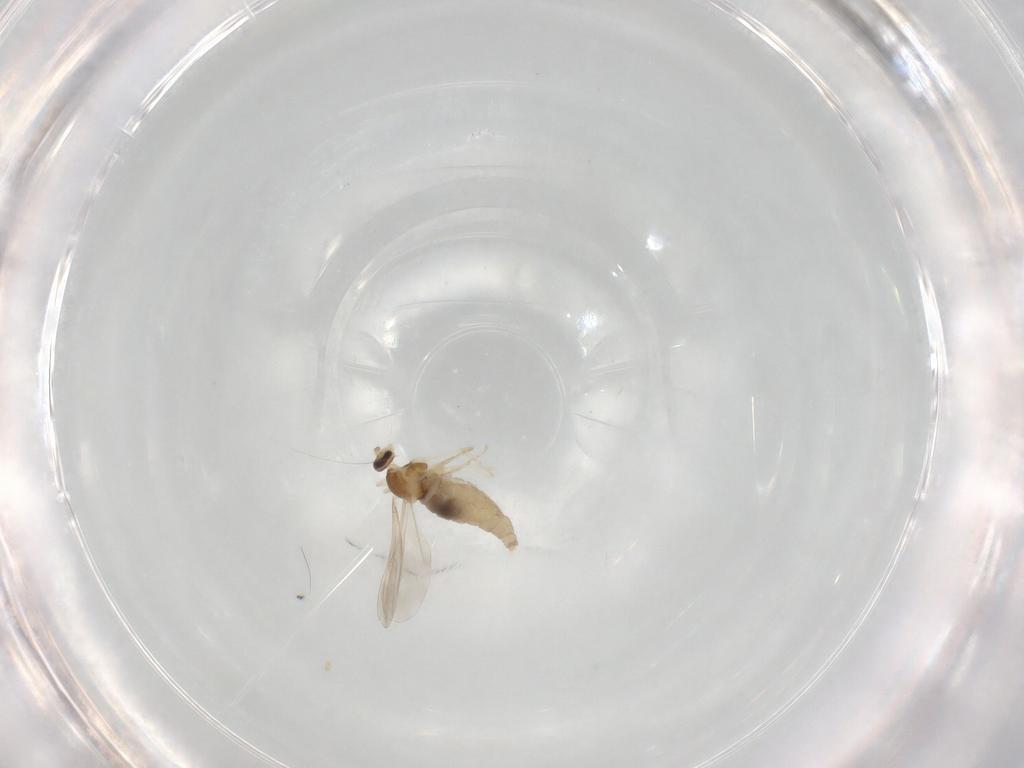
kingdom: Animalia
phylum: Arthropoda
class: Insecta
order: Diptera
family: Cecidomyiidae
